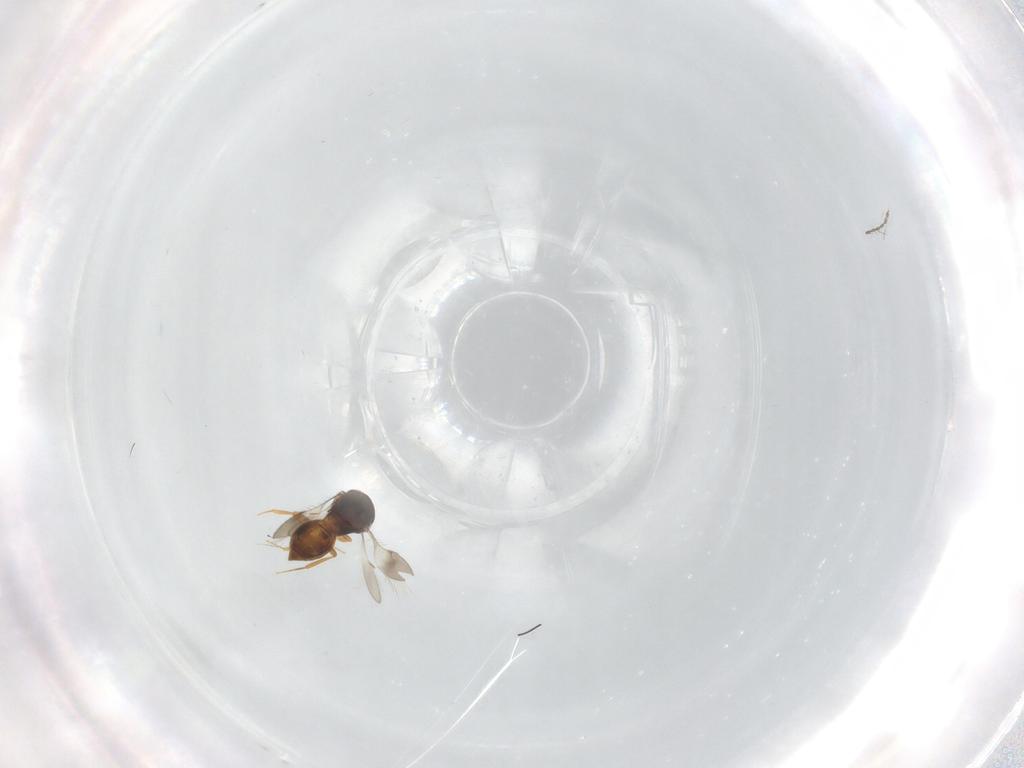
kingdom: Animalia
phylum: Arthropoda
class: Insecta
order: Hymenoptera
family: Scelionidae
